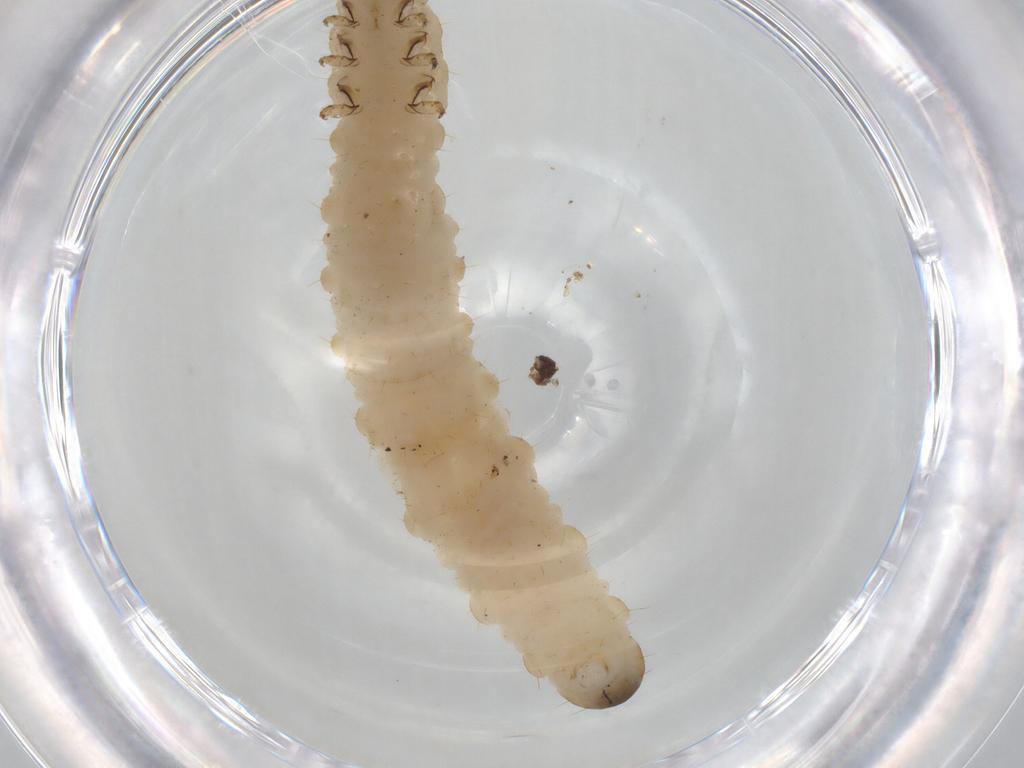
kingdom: Animalia
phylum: Arthropoda
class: Insecta
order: Coleoptera
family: Chrysomelidae
